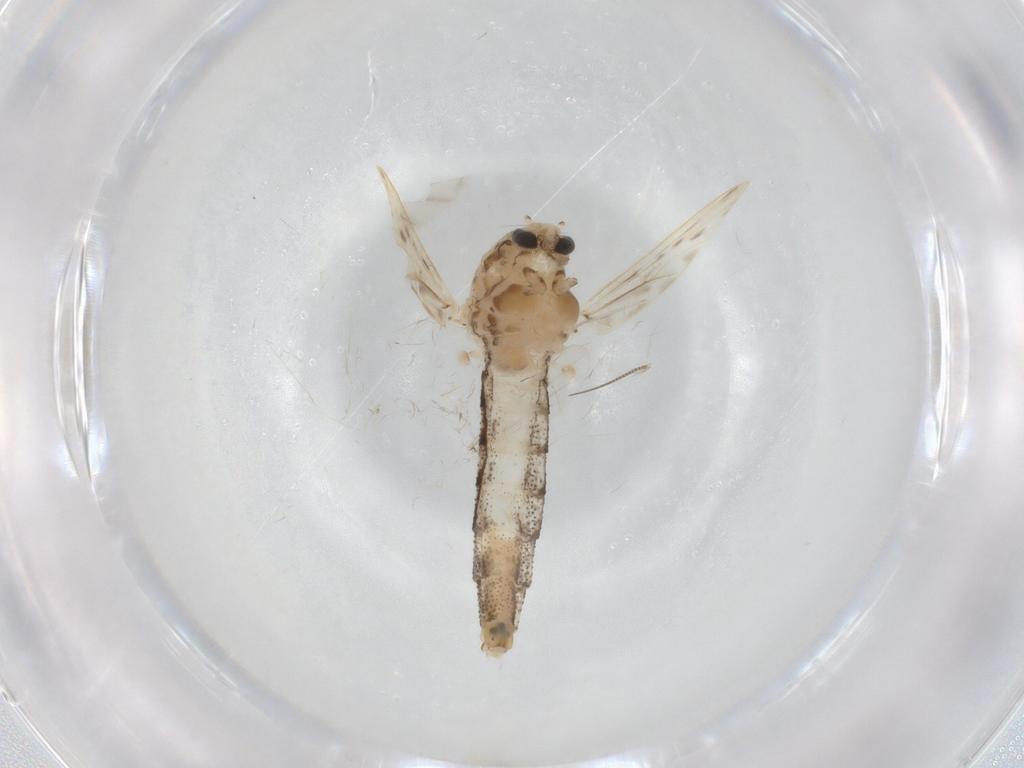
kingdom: Animalia
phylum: Arthropoda
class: Insecta
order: Diptera
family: Chaoboridae
